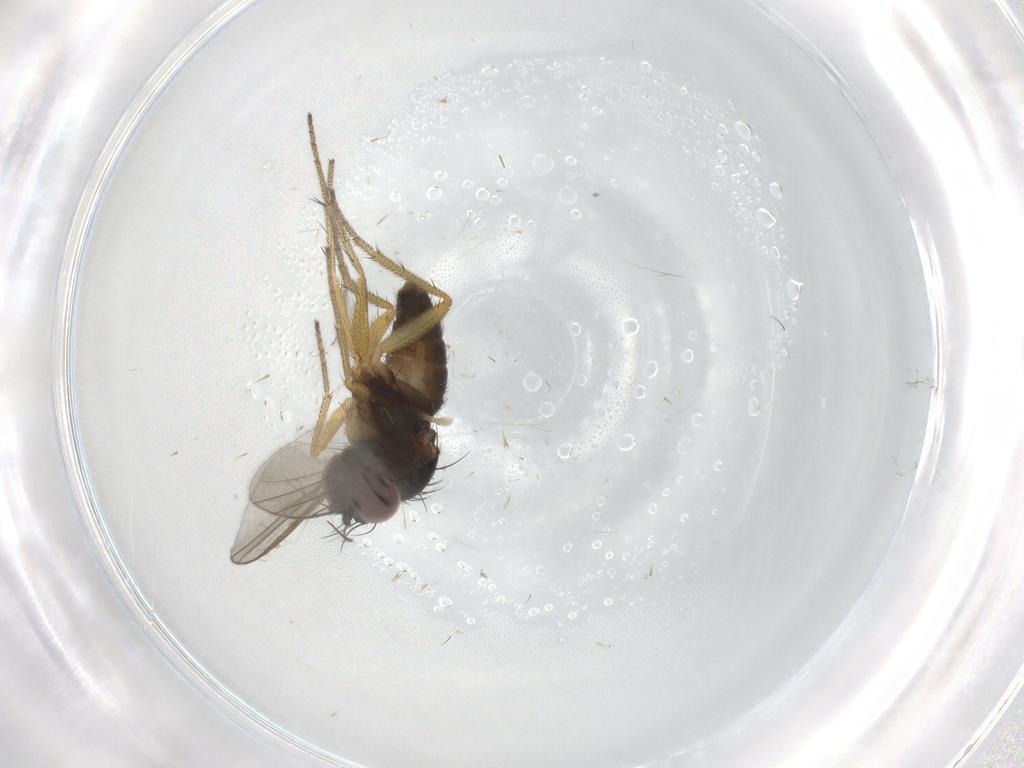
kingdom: Animalia
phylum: Arthropoda
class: Insecta
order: Diptera
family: Ceratopogonidae
